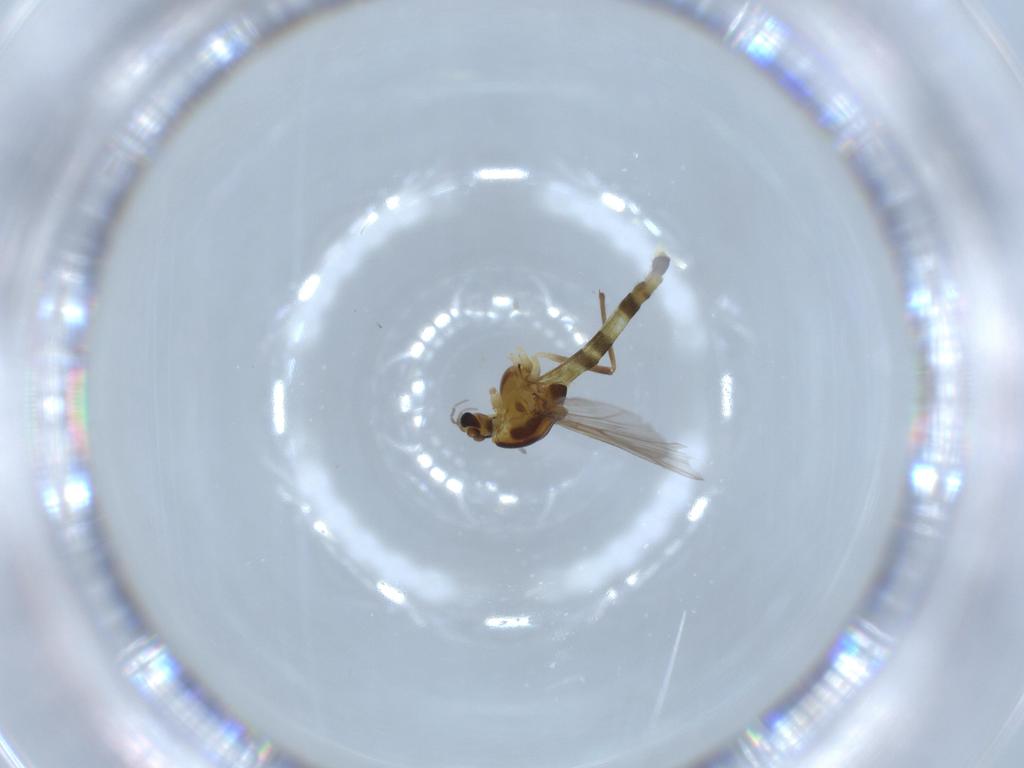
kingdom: Animalia
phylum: Arthropoda
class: Insecta
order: Diptera
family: Chironomidae
